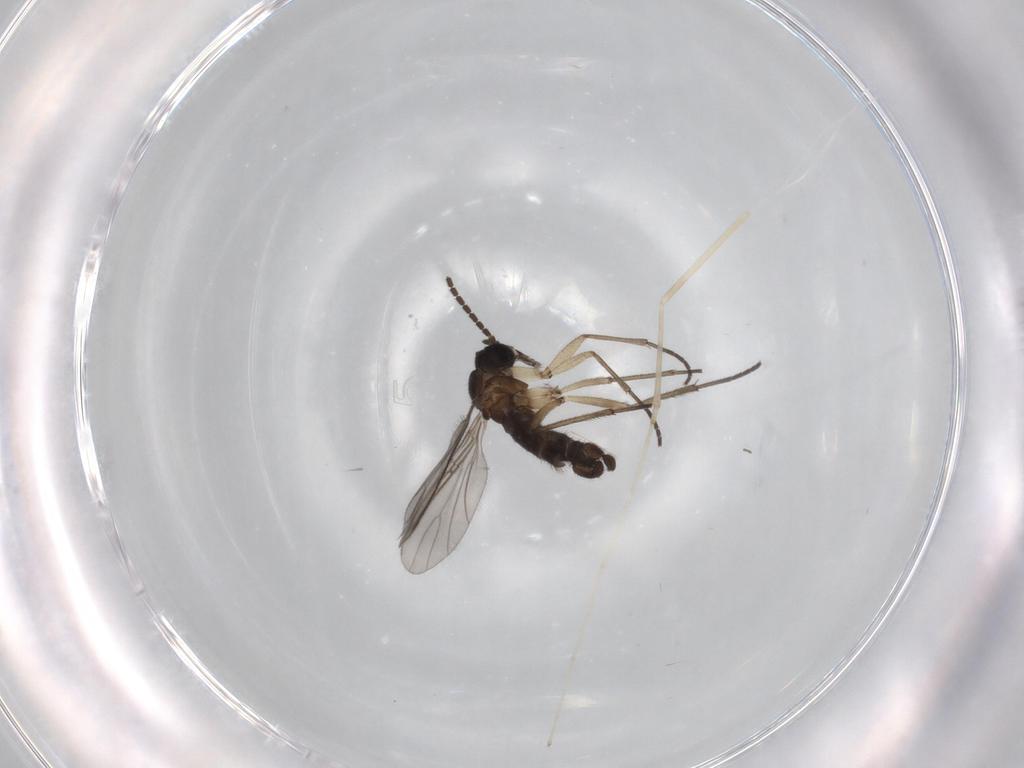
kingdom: Animalia
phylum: Arthropoda
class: Insecta
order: Diptera
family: Sciaridae
